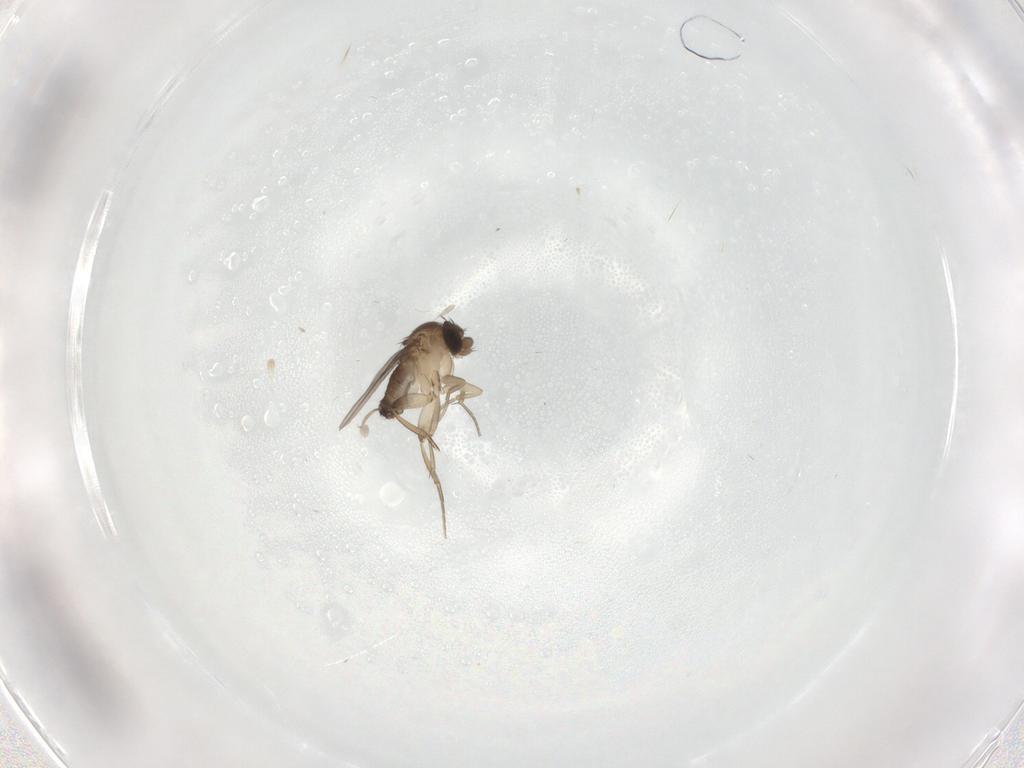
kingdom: Animalia
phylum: Arthropoda
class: Insecta
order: Diptera
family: Phoridae
